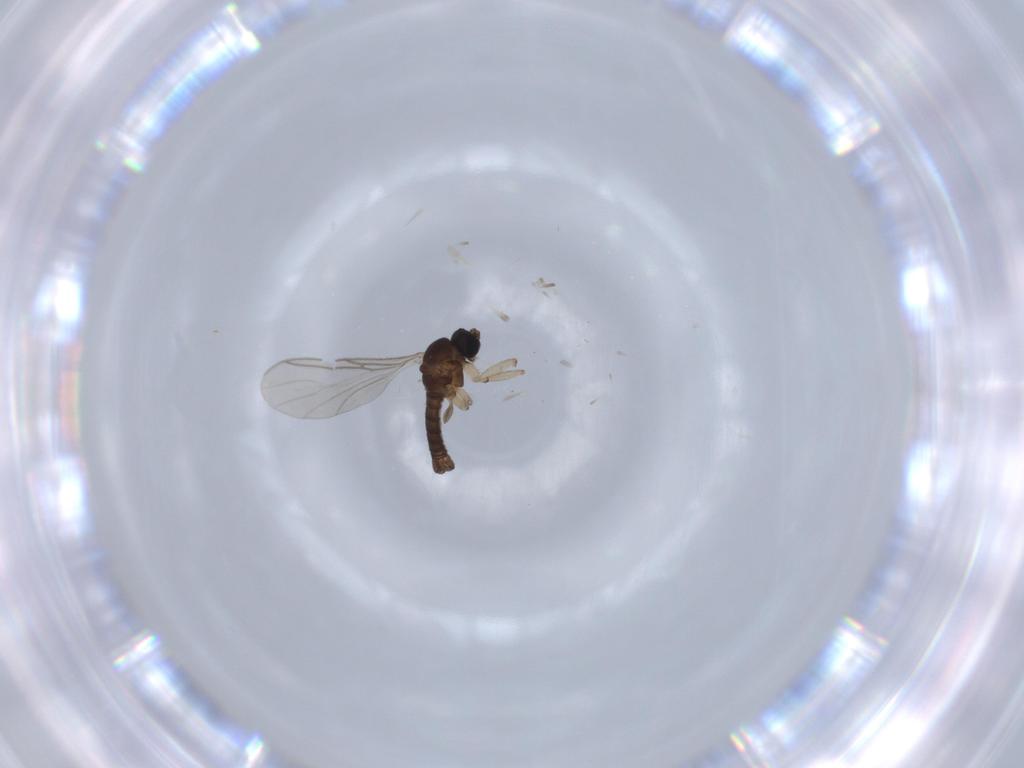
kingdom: Animalia
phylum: Arthropoda
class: Insecta
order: Diptera
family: Sciaridae
